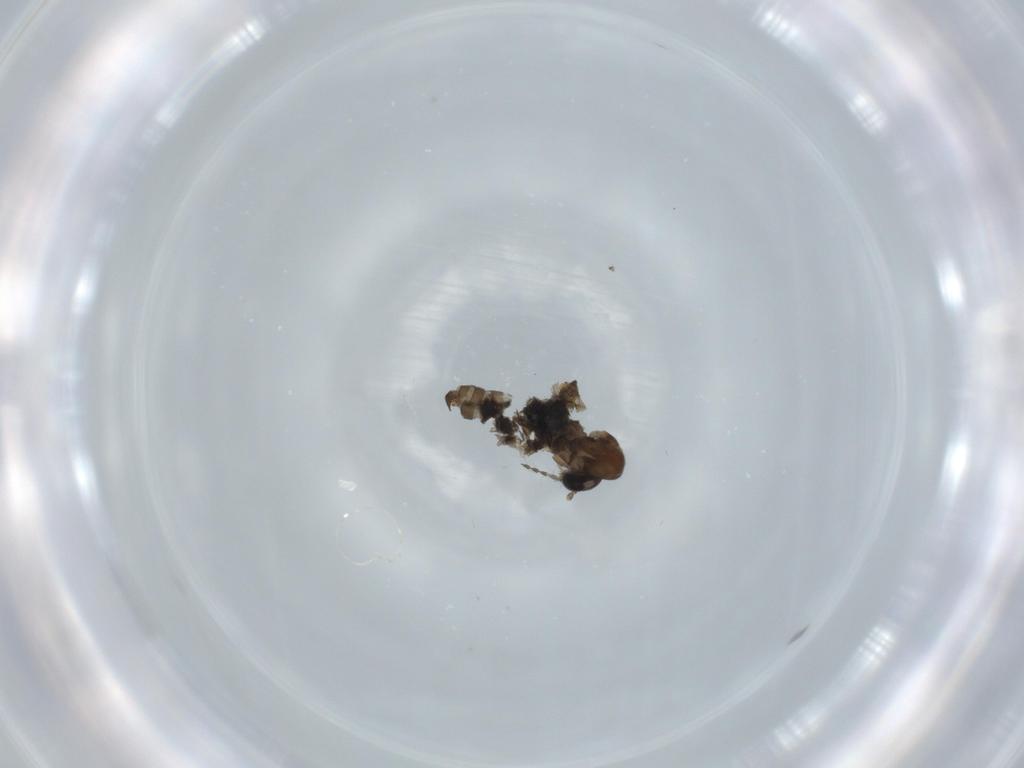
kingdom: Animalia
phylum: Arthropoda
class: Insecta
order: Diptera
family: Psychodidae
